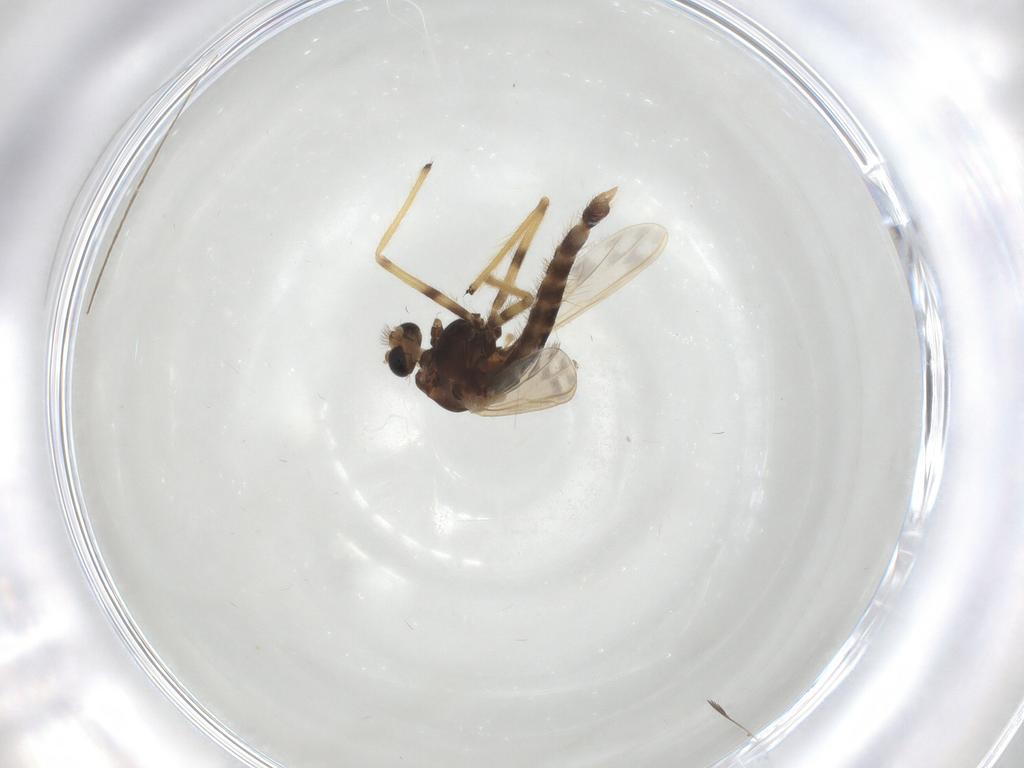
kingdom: Animalia
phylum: Arthropoda
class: Insecta
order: Diptera
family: Chironomidae
